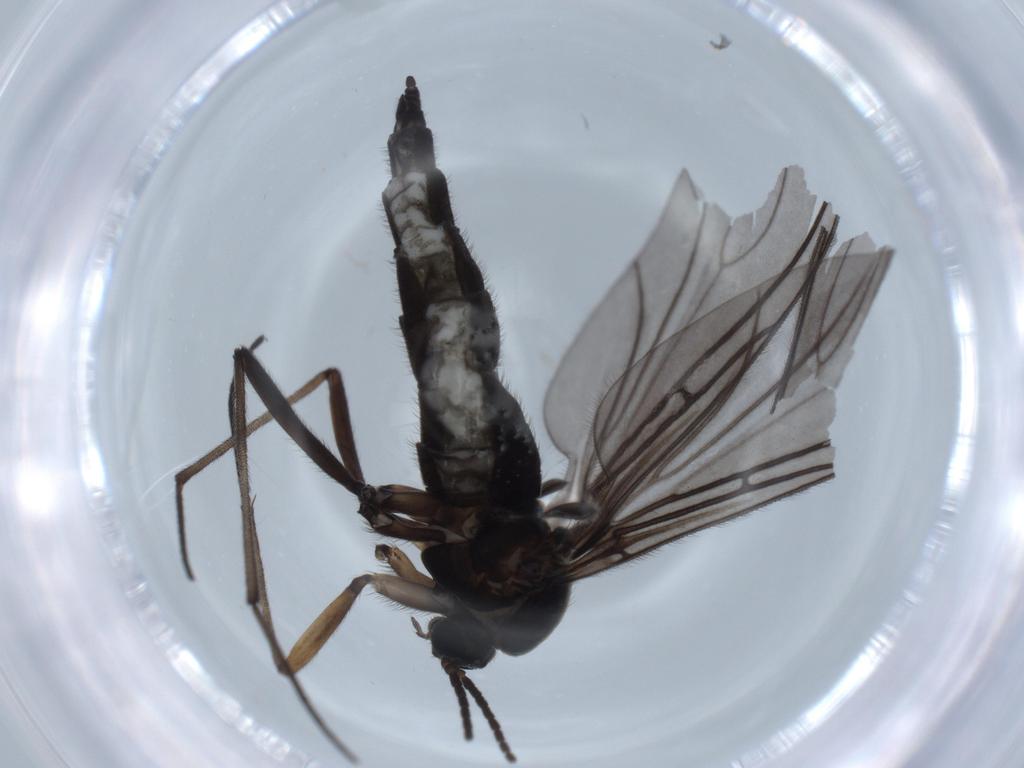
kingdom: Animalia
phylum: Arthropoda
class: Insecta
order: Diptera
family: Sciaridae
